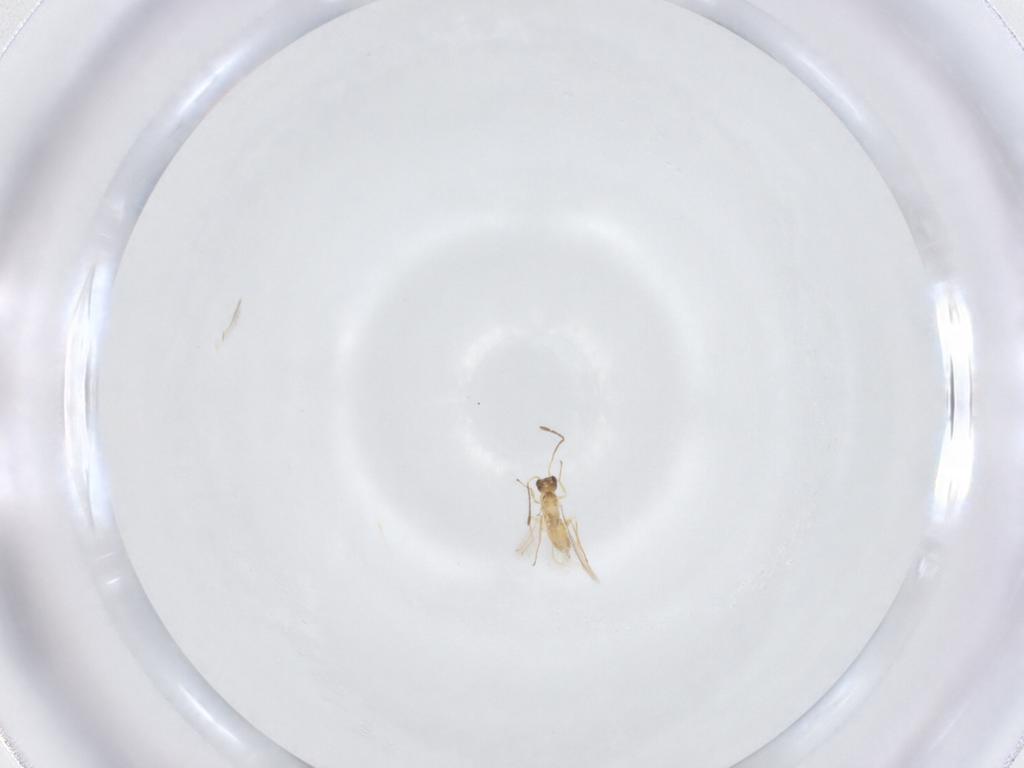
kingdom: Animalia
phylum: Arthropoda
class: Insecta
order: Hymenoptera
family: Mymaridae
